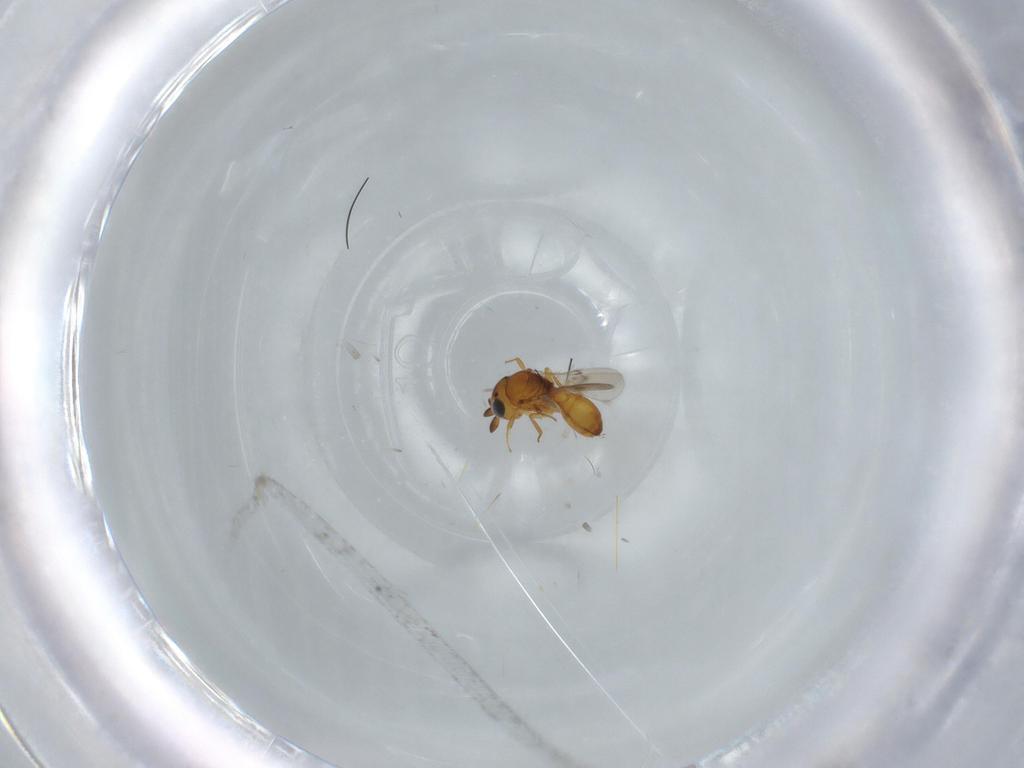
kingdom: Animalia
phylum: Arthropoda
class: Insecta
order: Hymenoptera
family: Scelionidae
